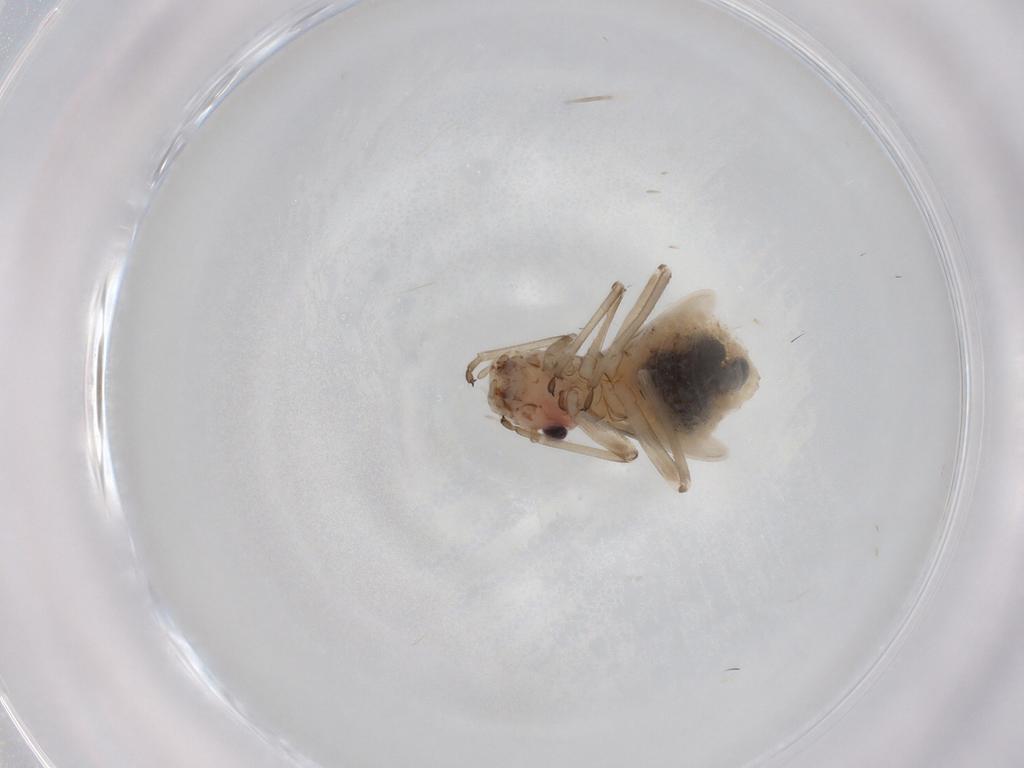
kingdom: Animalia
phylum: Arthropoda
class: Insecta
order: Psocodea
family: Stenopsocidae
